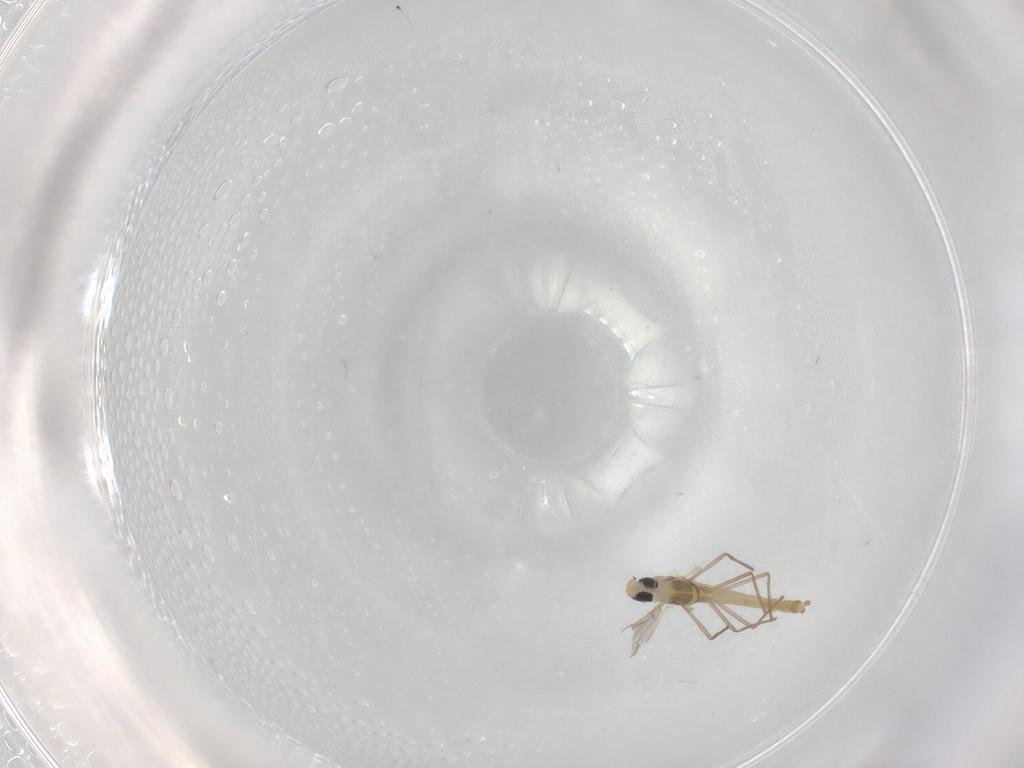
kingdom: Animalia
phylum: Arthropoda
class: Insecta
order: Diptera
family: Chironomidae
